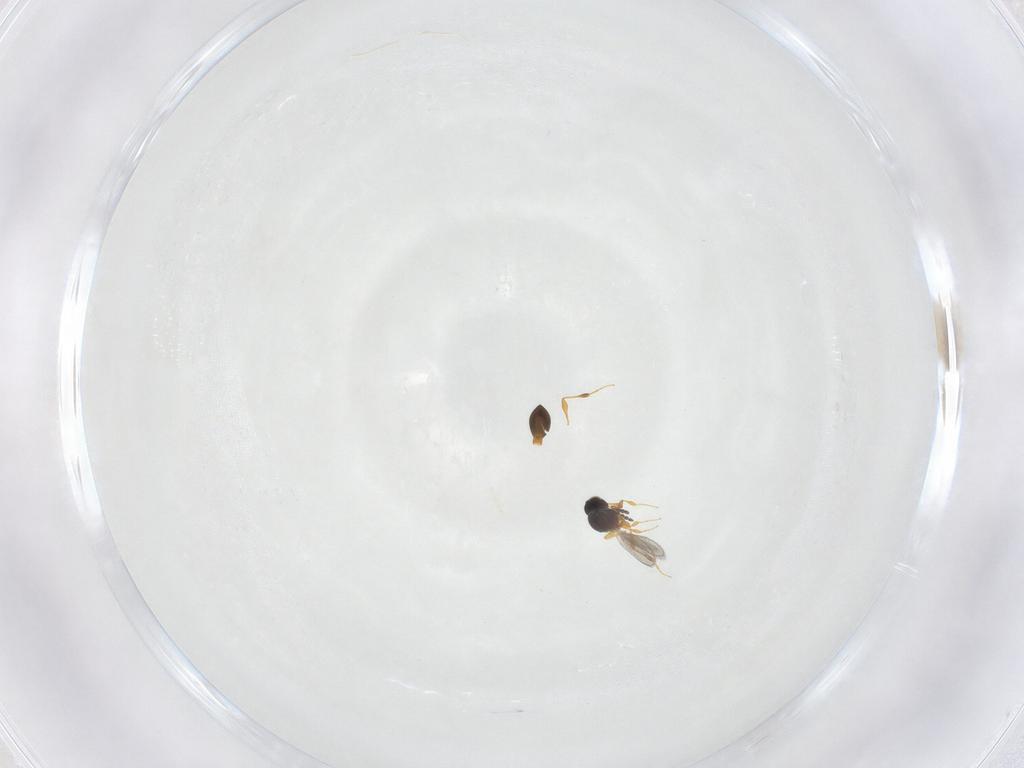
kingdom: Animalia
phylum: Arthropoda
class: Insecta
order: Hymenoptera
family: Platygastridae
